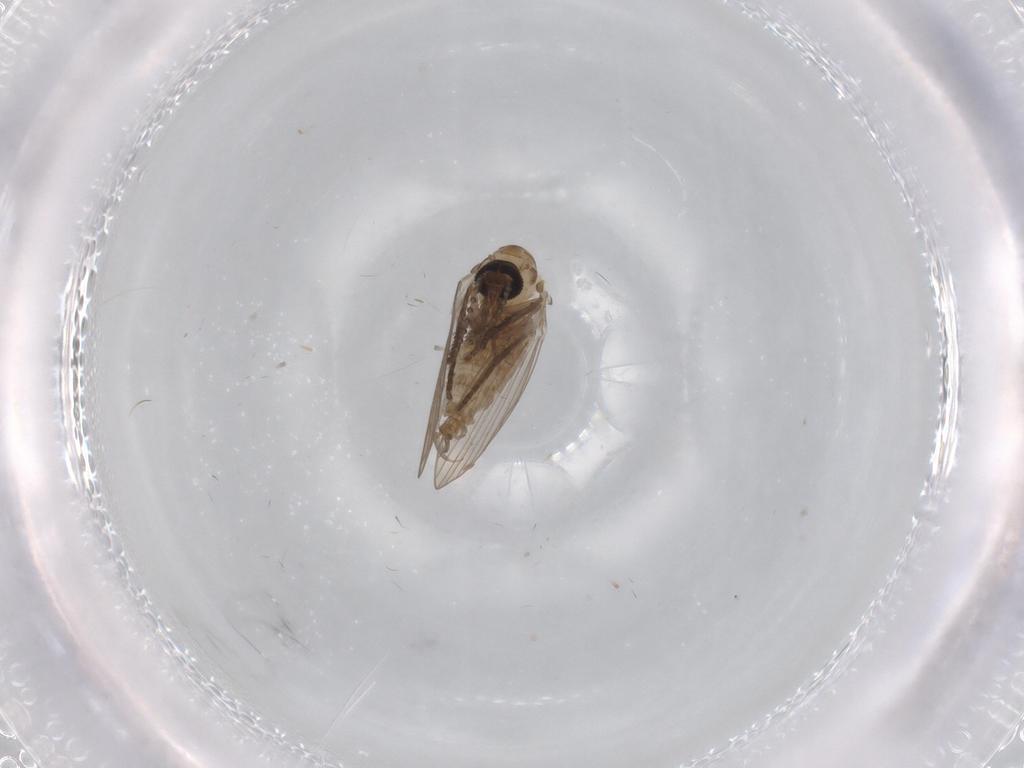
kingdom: Animalia
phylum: Arthropoda
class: Insecta
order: Diptera
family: Psychodidae
